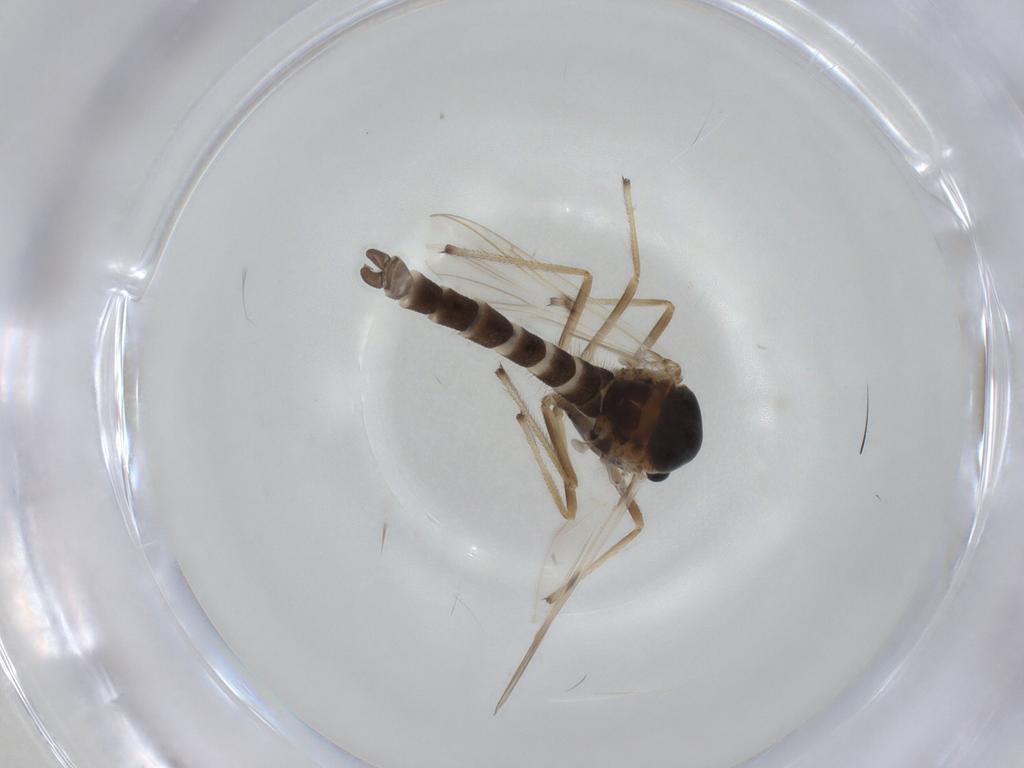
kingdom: Animalia
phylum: Arthropoda
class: Insecta
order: Diptera
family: Chironomidae
